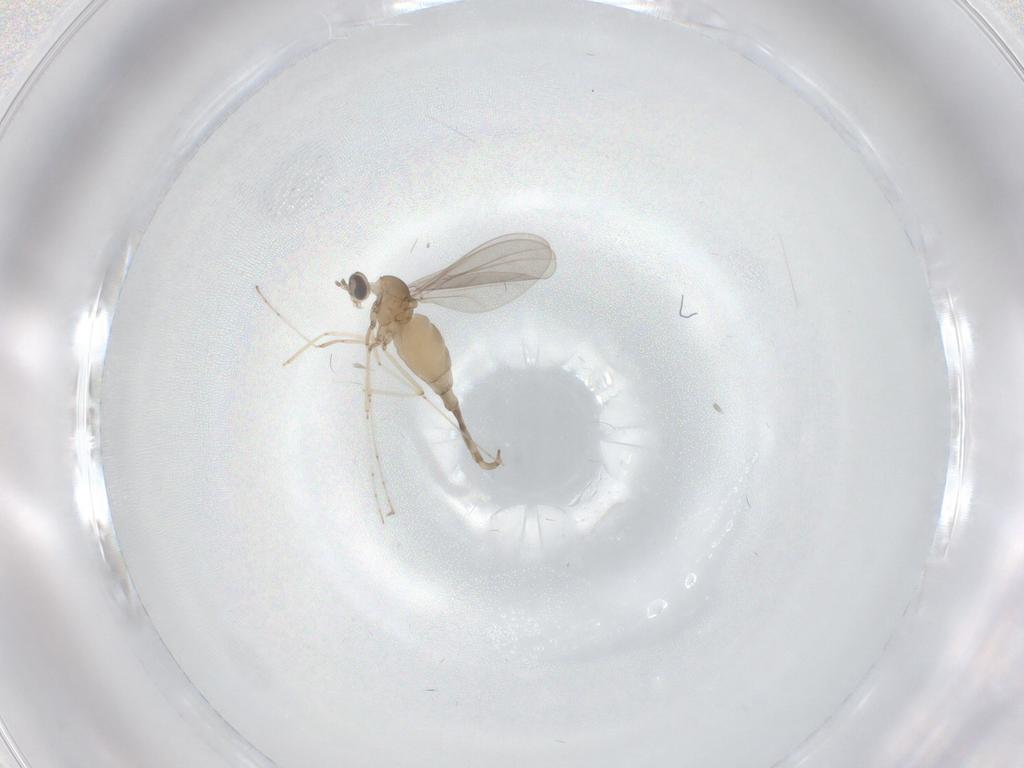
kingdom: Animalia
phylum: Arthropoda
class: Insecta
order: Diptera
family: Cecidomyiidae
